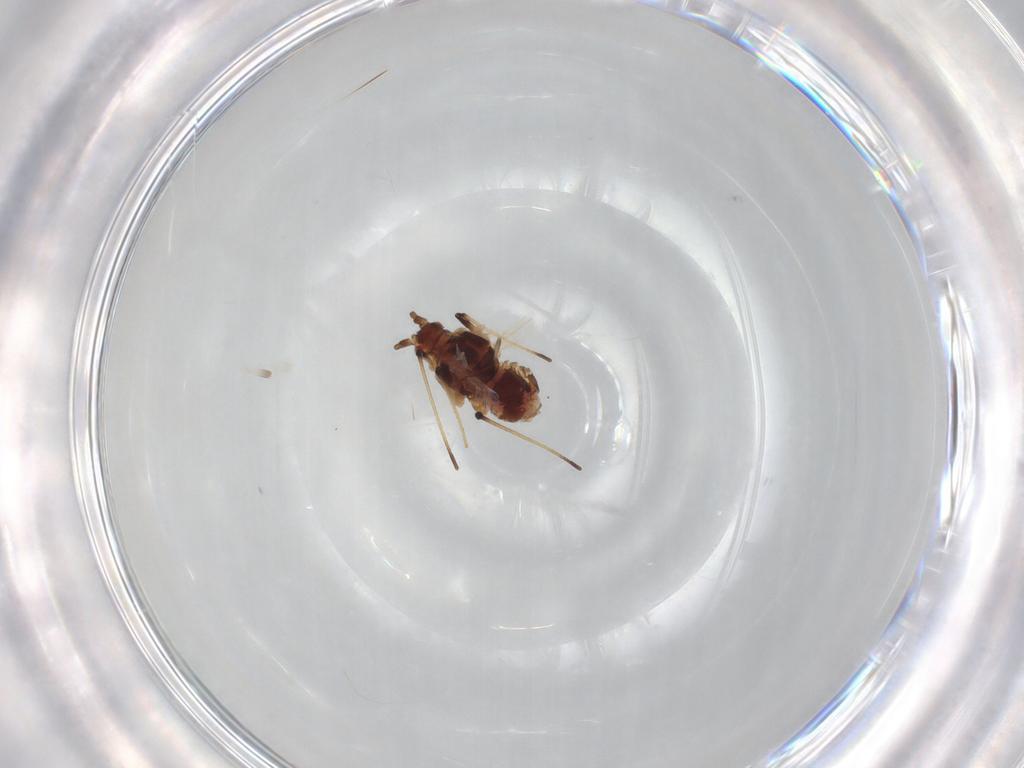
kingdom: Animalia
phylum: Arthropoda
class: Insecta
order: Hemiptera
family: Aphididae
